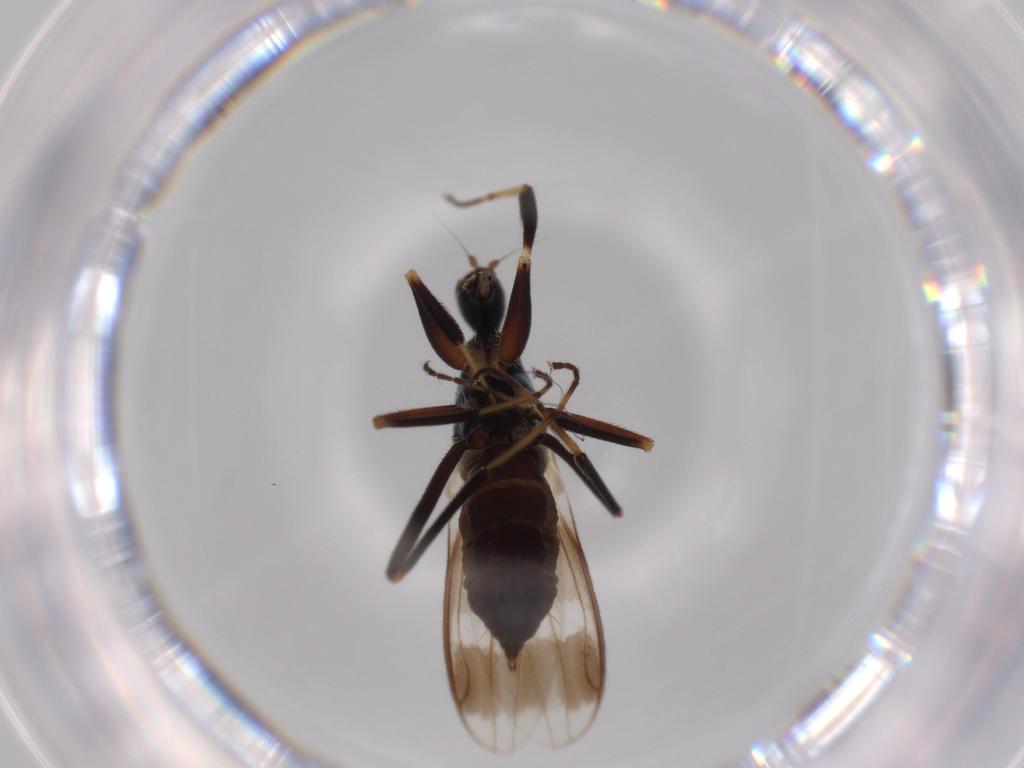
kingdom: Animalia
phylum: Arthropoda
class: Insecta
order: Diptera
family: Hybotidae
